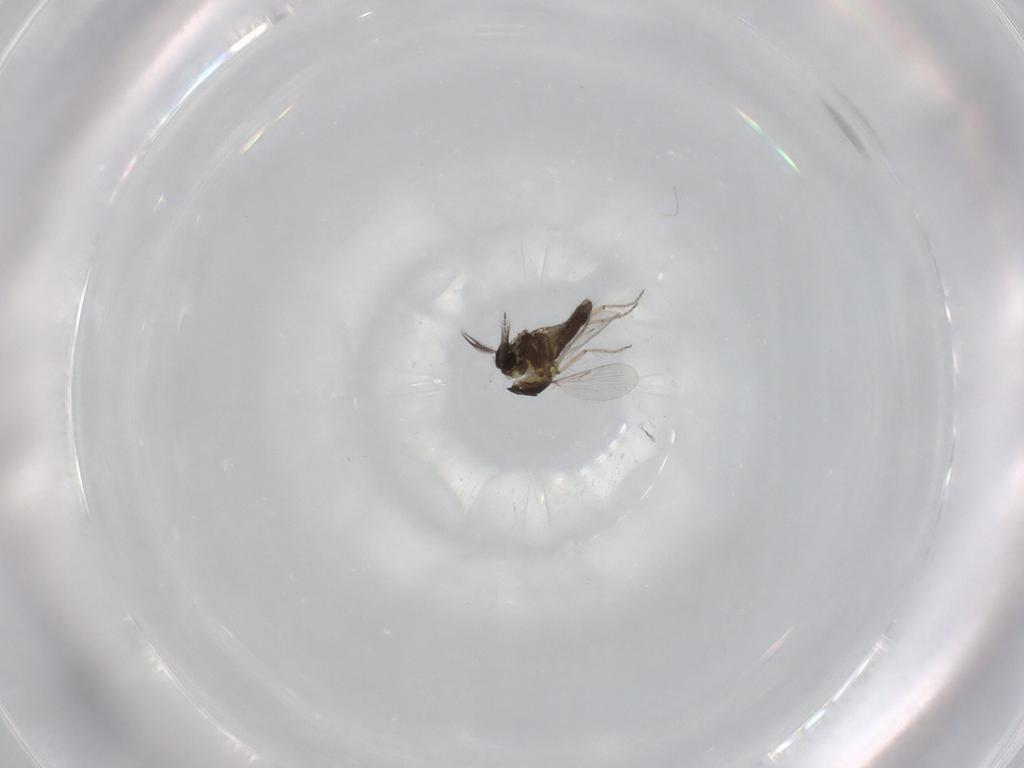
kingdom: Animalia
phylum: Arthropoda
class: Insecta
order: Diptera
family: Ceratopogonidae
